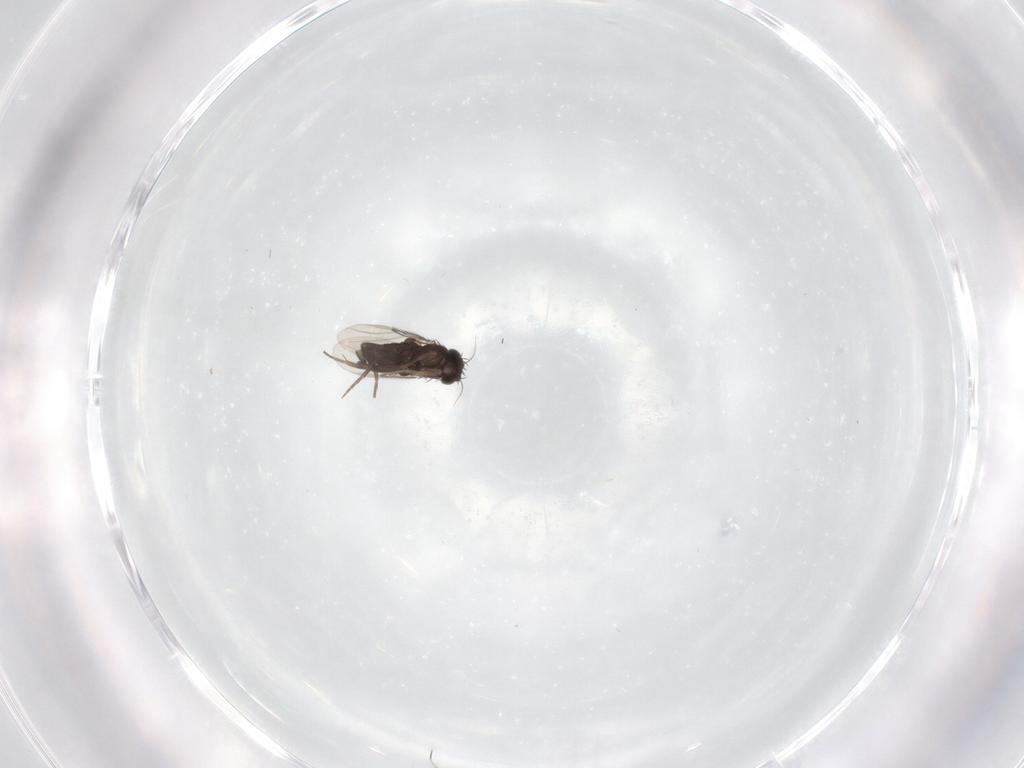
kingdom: Animalia
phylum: Arthropoda
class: Insecta
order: Diptera
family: Phoridae
